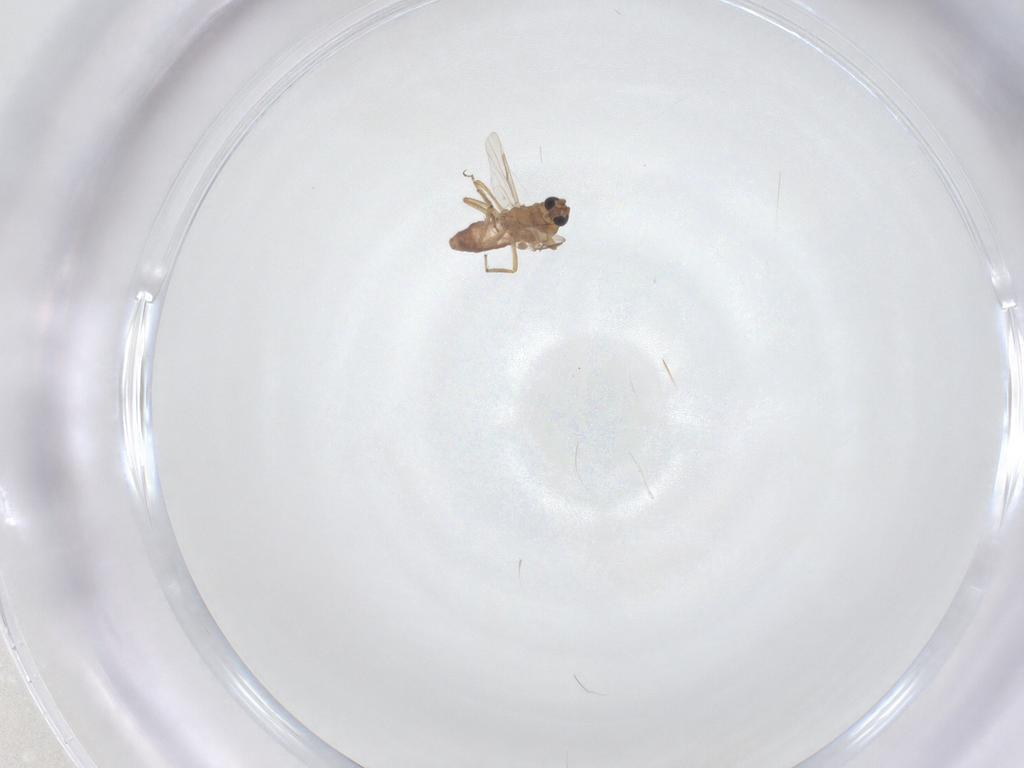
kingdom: Animalia
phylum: Arthropoda
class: Insecta
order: Diptera
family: Ceratopogonidae
